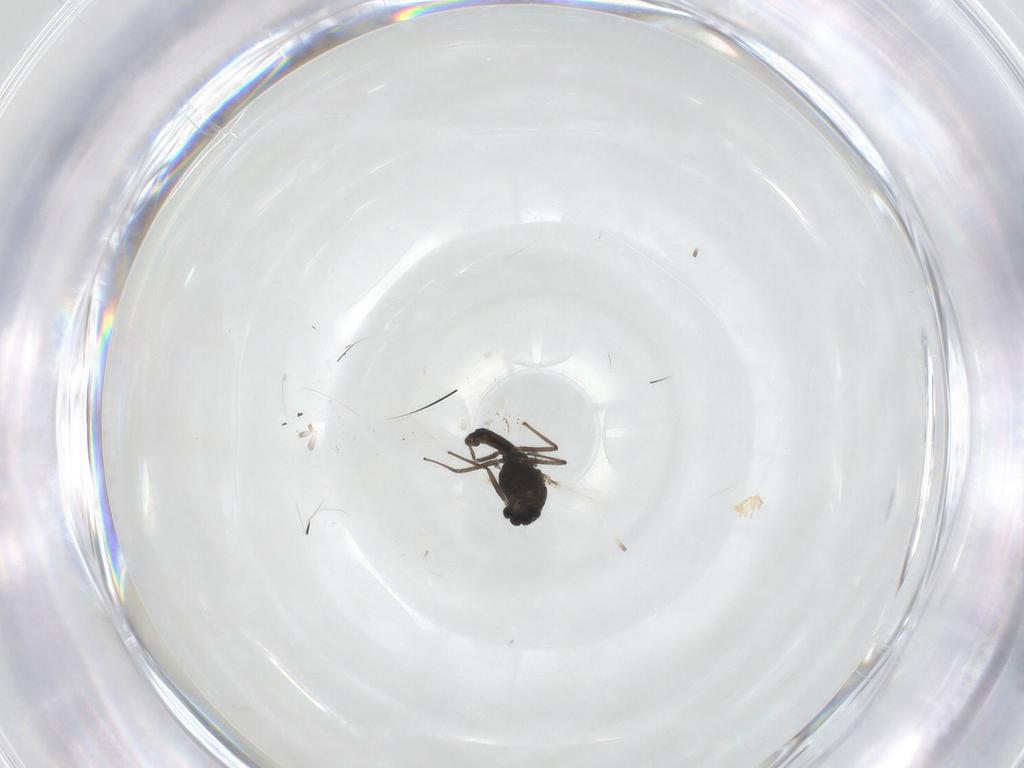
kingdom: Animalia
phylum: Arthropoda
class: Insecta
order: Diptera
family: Chironomidae
